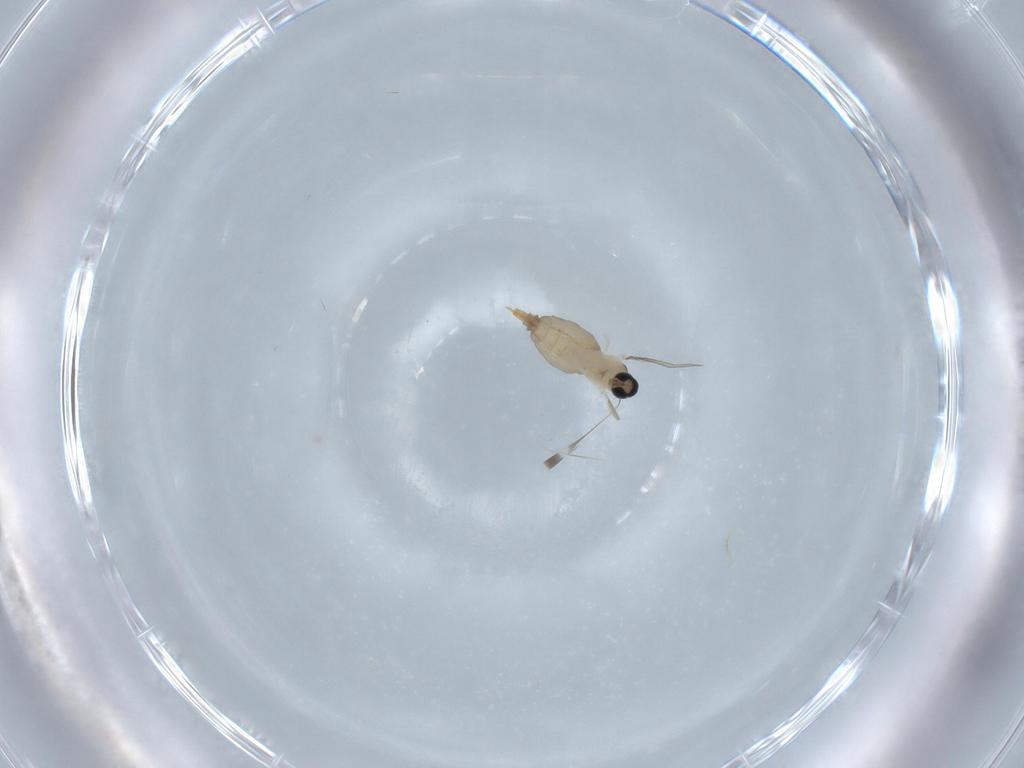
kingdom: Animalia
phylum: Arthropoda
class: Insecta
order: Diptera
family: Cecidomyiidae
